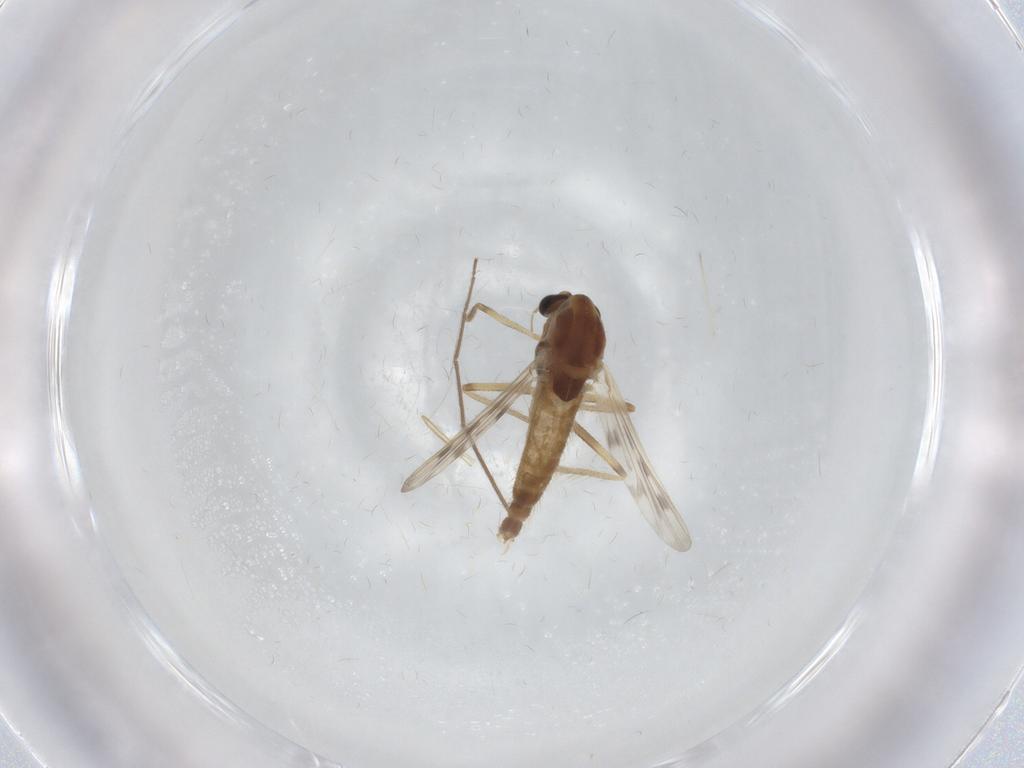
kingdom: Animalia
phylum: Arthropoda
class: Insecta
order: Diptera
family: Chironomidae
